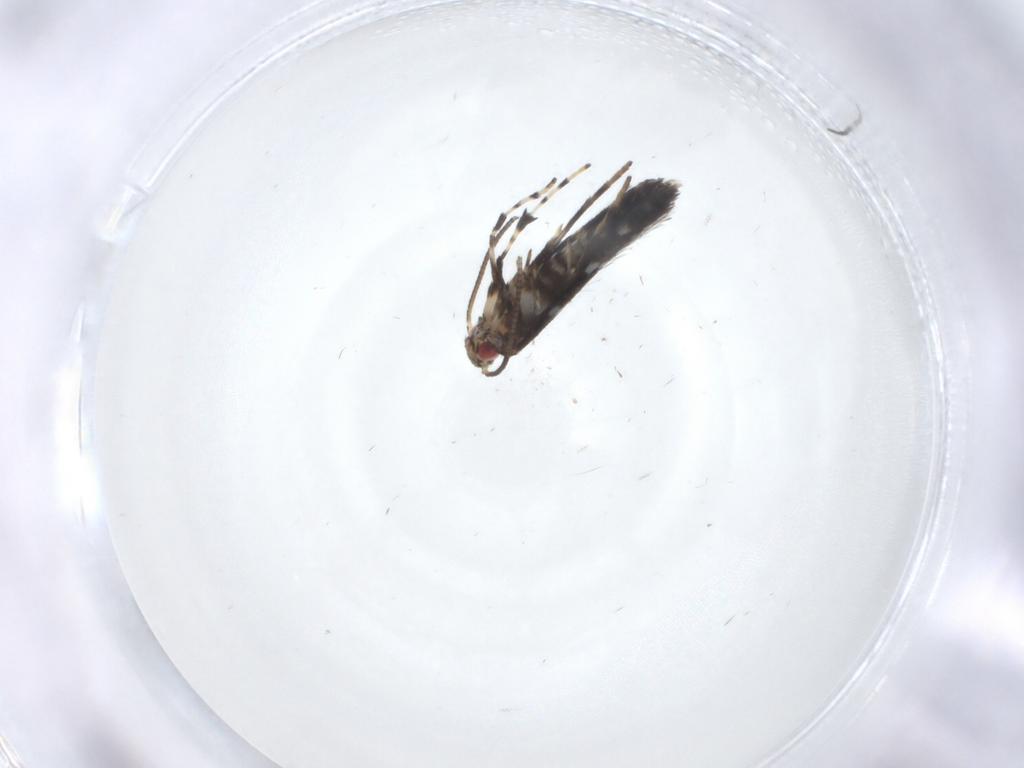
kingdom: Animalia
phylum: Arthropoda
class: Insecta
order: Lepidoptera
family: Gracillariidae
